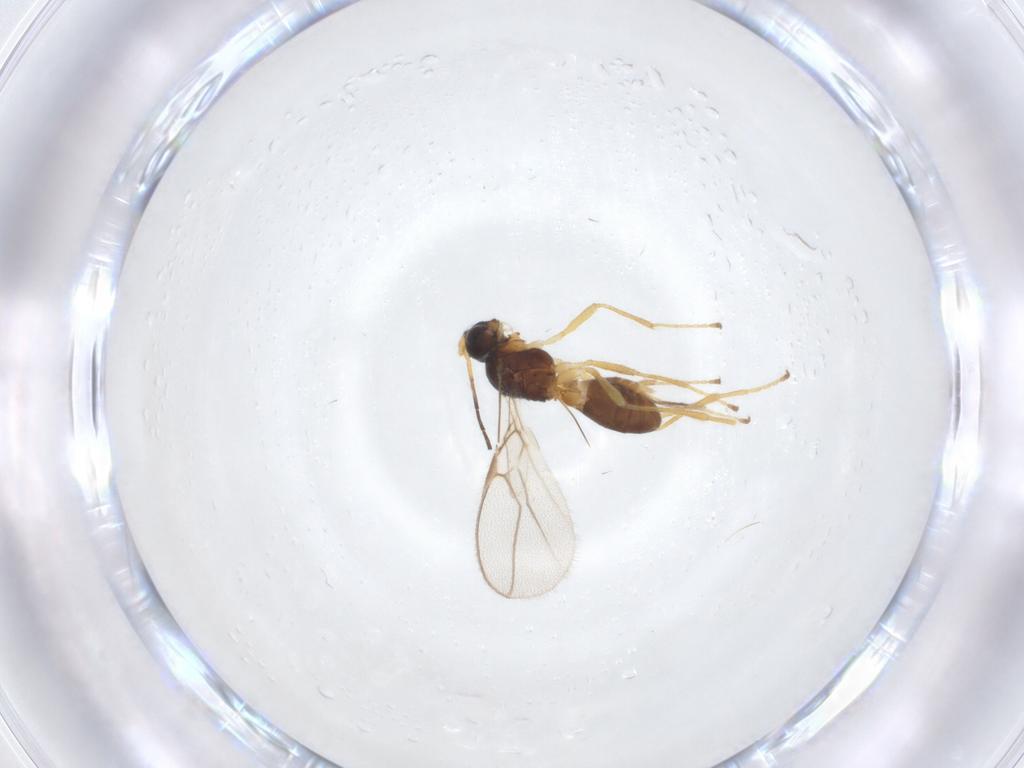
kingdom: Animalia
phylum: Arthropoda
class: Insecta
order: Hymenoptera
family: Braconidae
